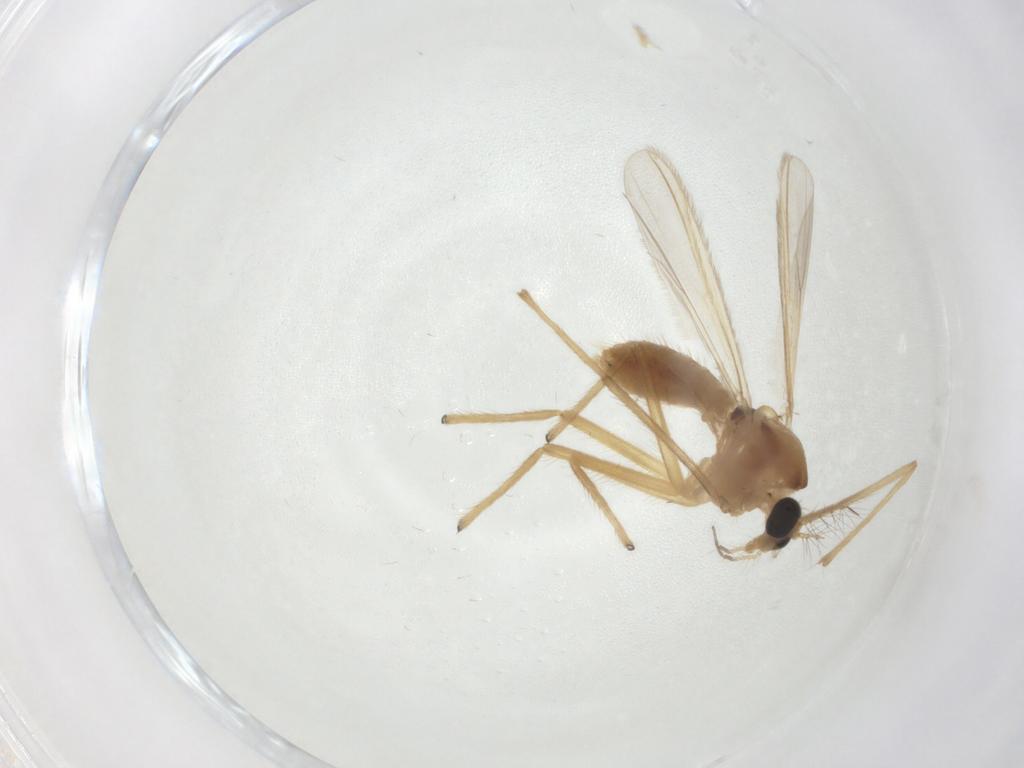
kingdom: Animalia
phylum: Arthropoda
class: Insecta
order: Diptera
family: Chironomidae
